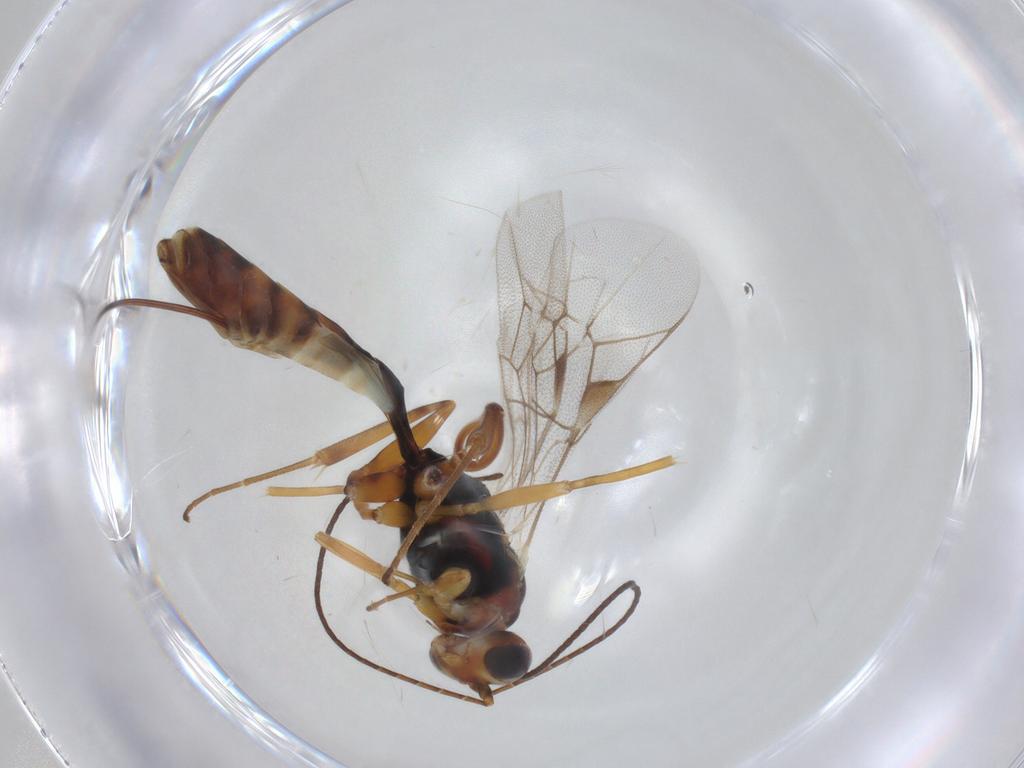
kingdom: Animalia
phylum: Arthropoda
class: Insecta
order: Hymenoptera
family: Ichneumonidae
